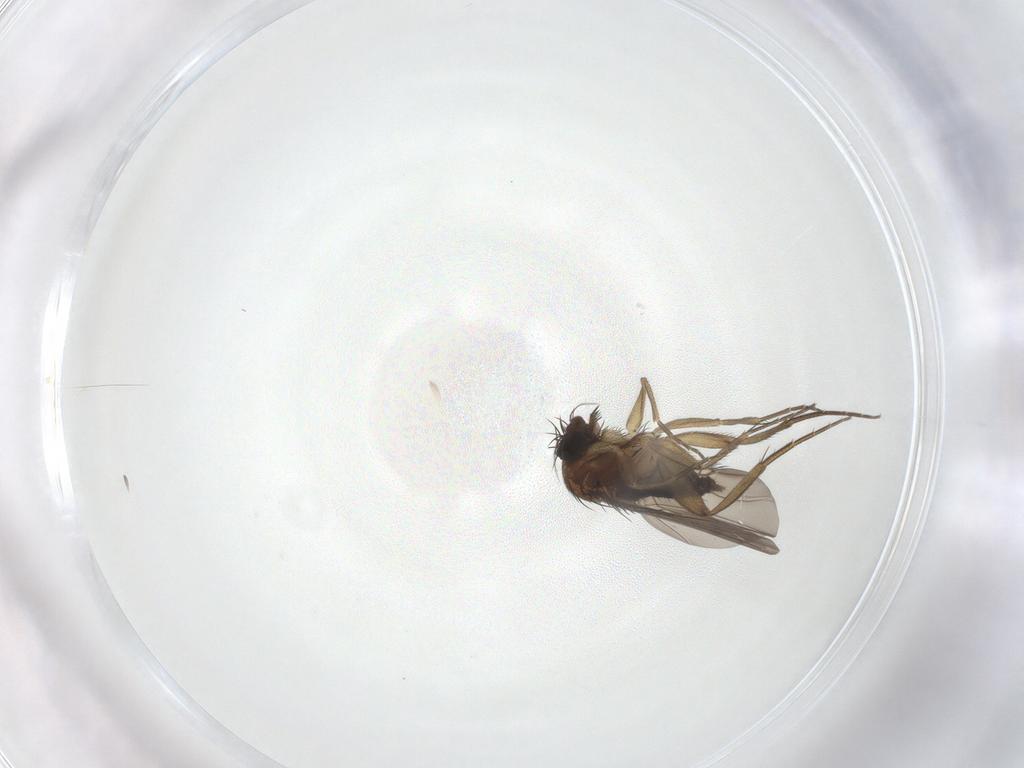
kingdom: Animalia
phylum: Arthropoda
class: Insecta
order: Diptera
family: Phoridae
